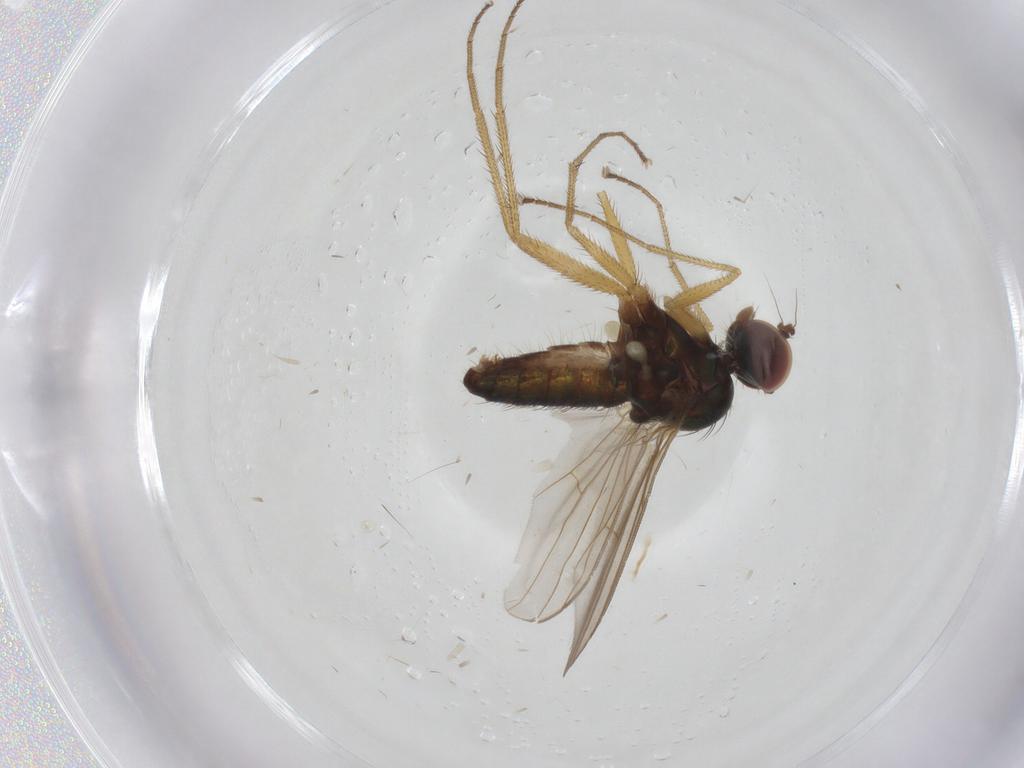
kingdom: Animalia
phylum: Arthropoda
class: Insecta
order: Diptera
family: Dolichopodidae
